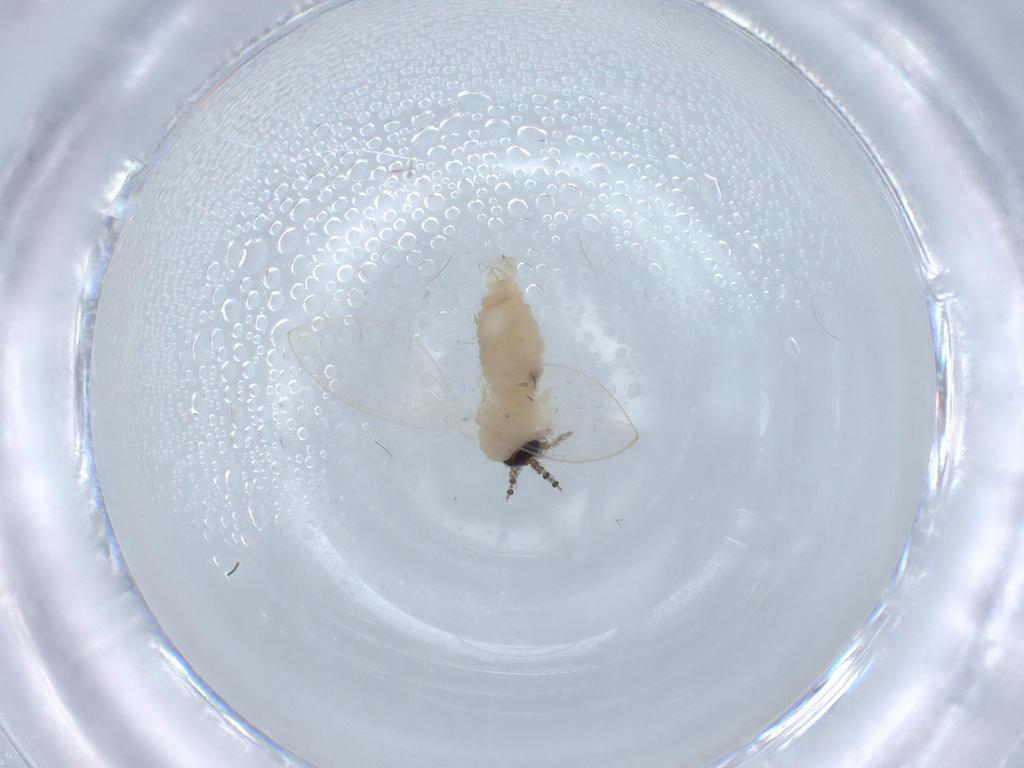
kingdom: Animalia
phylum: Arthropoda
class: Insecta
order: Diptera
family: Psychodidae
